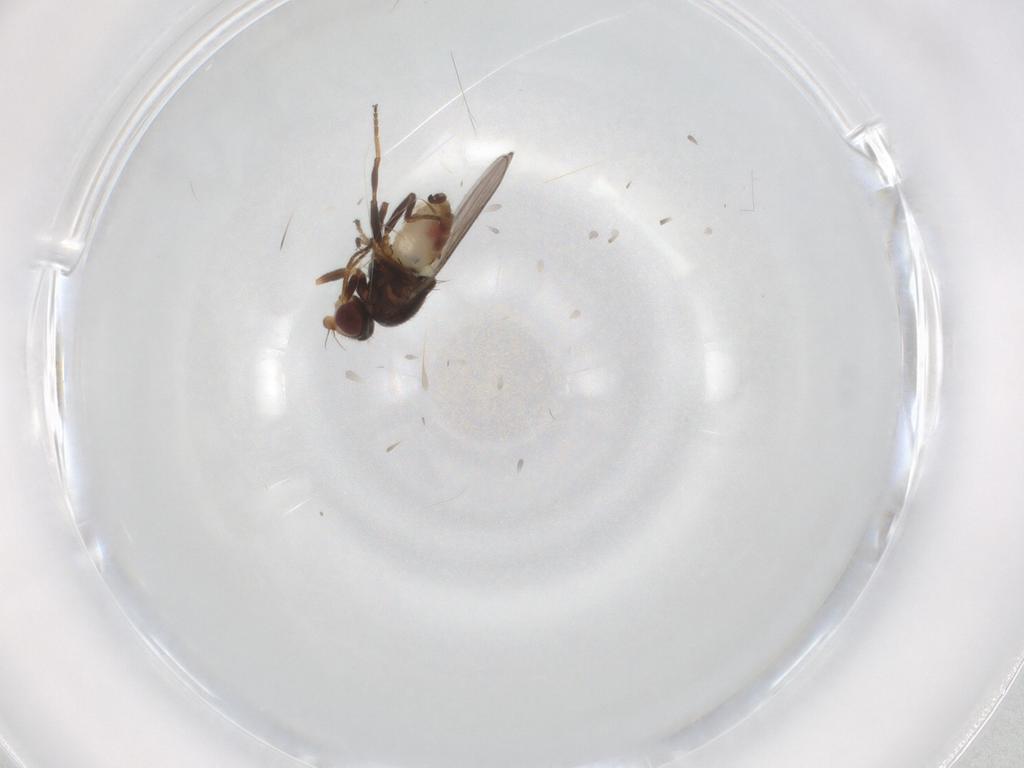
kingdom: Animalia
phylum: Arthropoda
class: Insecta
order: Diptera
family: Chloropidae
